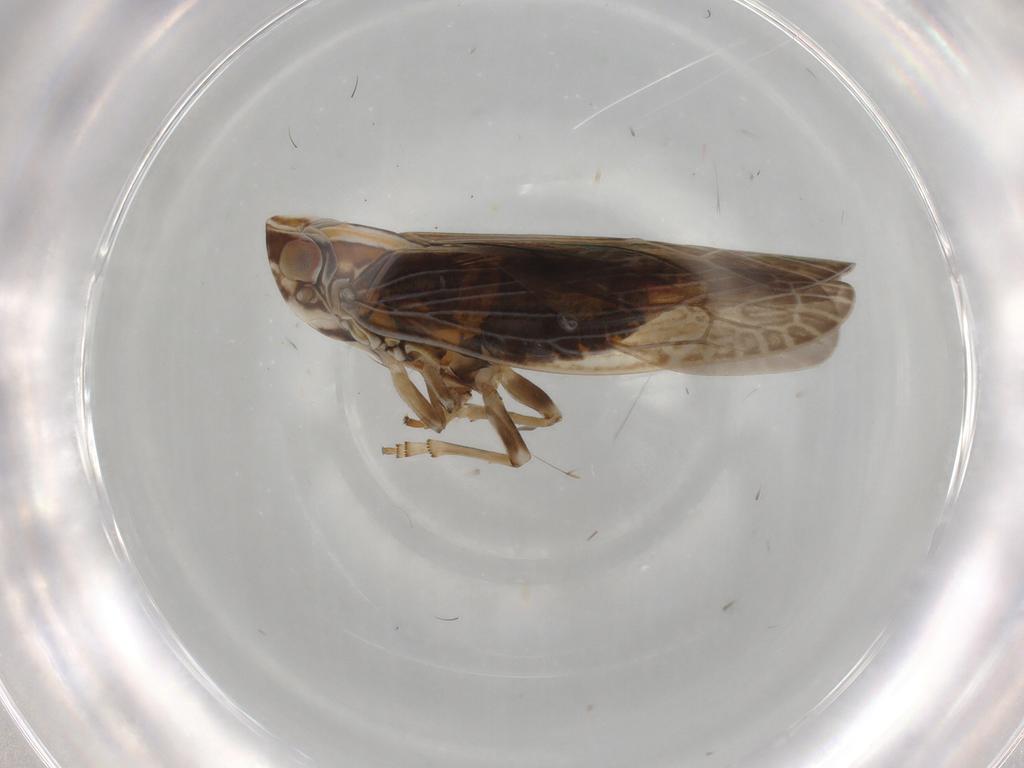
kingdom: Animalia
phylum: Arthropoda
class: Insecta
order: Hemiptera
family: Achilidae
